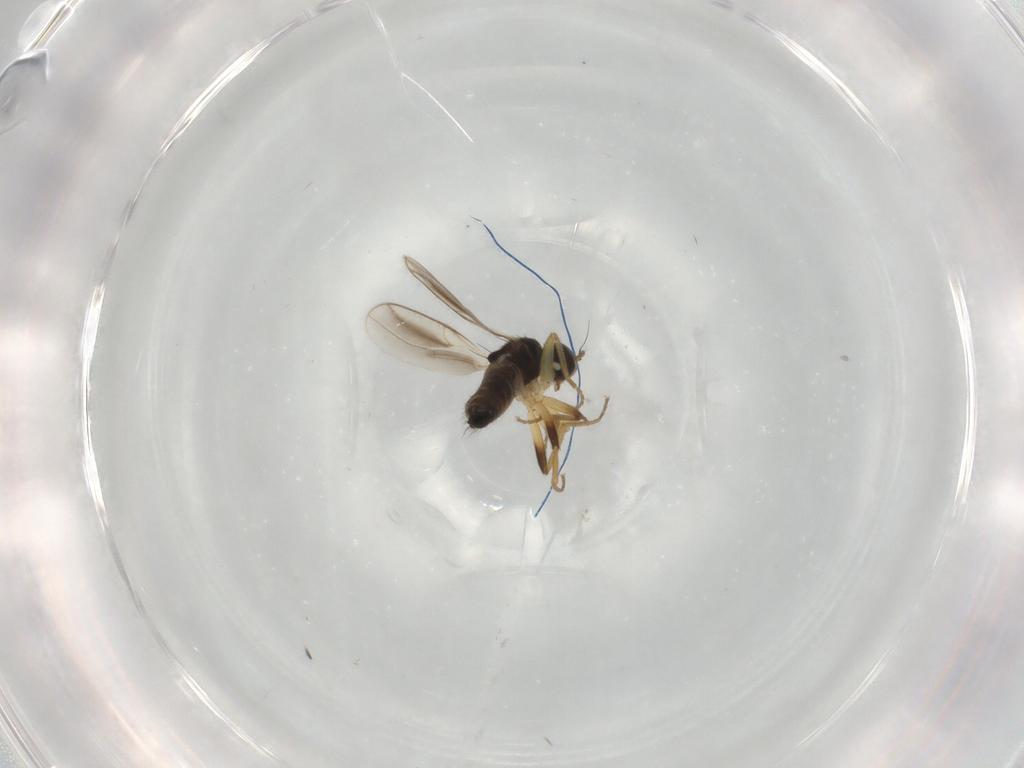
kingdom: Animalia
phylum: Arthropoda
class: Insecta
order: Diptera
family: Hybotidae
